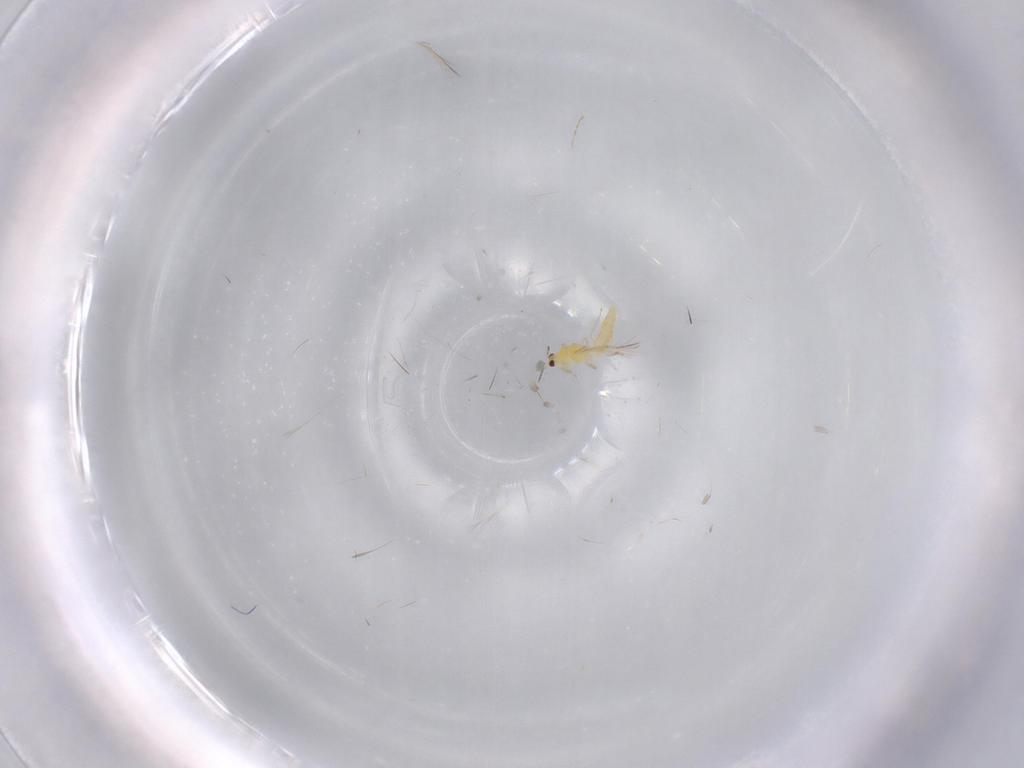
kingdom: Animalia
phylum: Arthropoda
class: Insecta
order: Thysanoptera
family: Thripidae
